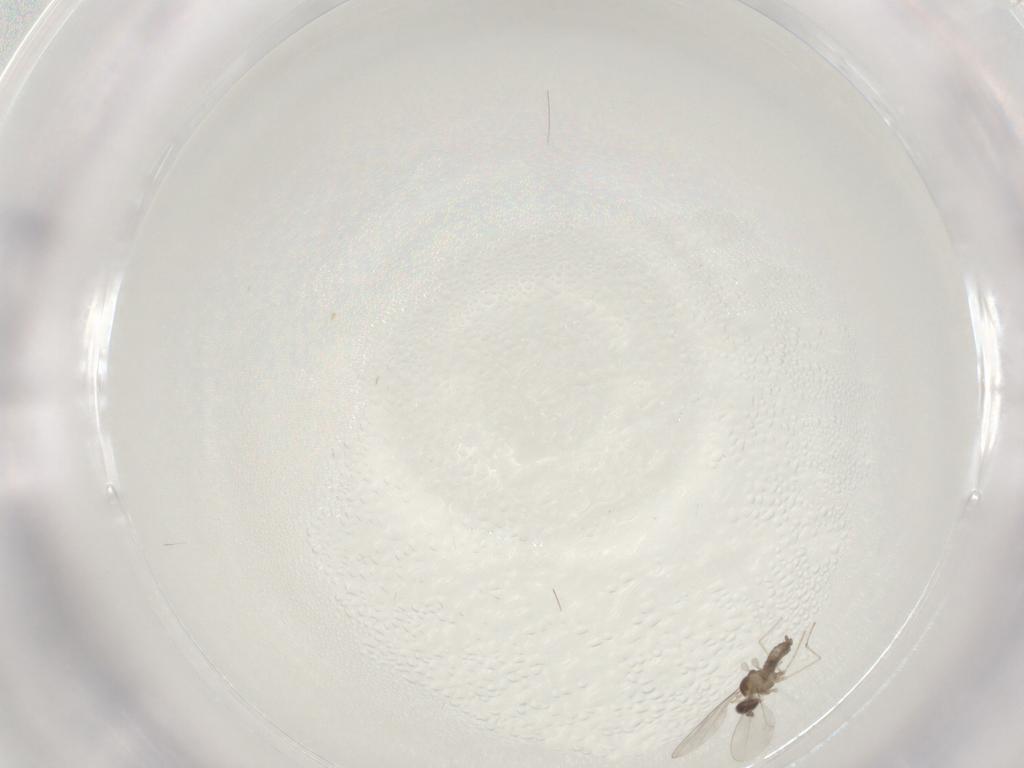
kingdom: Animalia
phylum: Arthropoda
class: Insecta
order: Diptera
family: Cecidomyiidae
